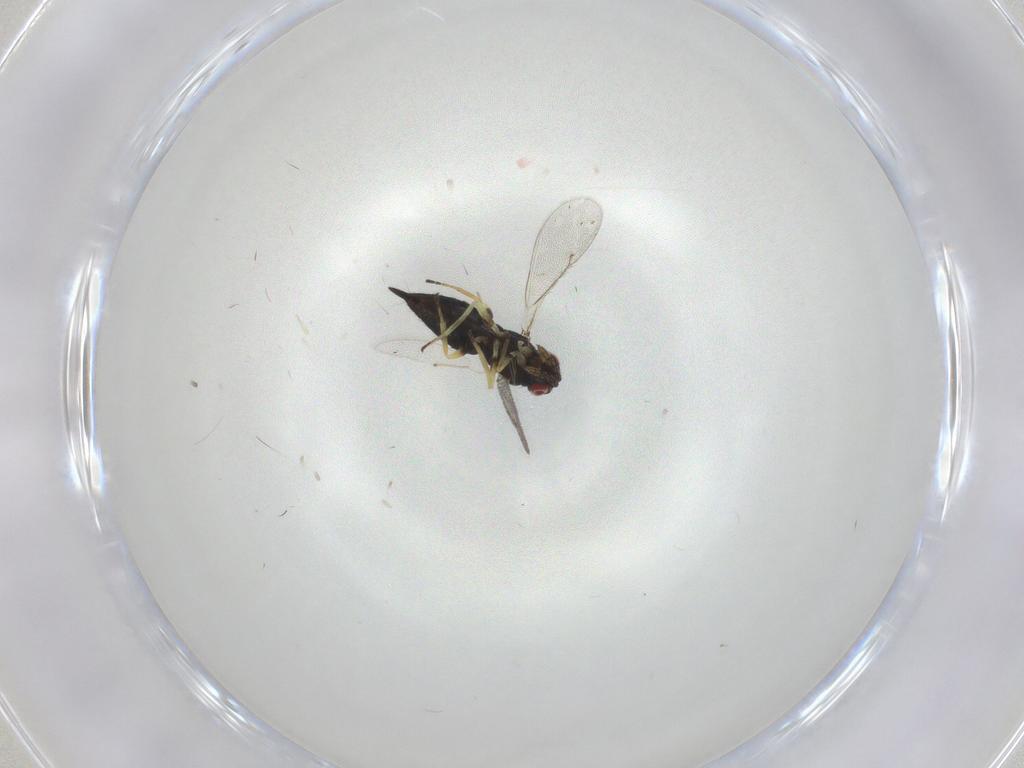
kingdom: Animalia
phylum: Arthropoda
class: Insecta
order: Hymenoptera
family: Eulophidae
